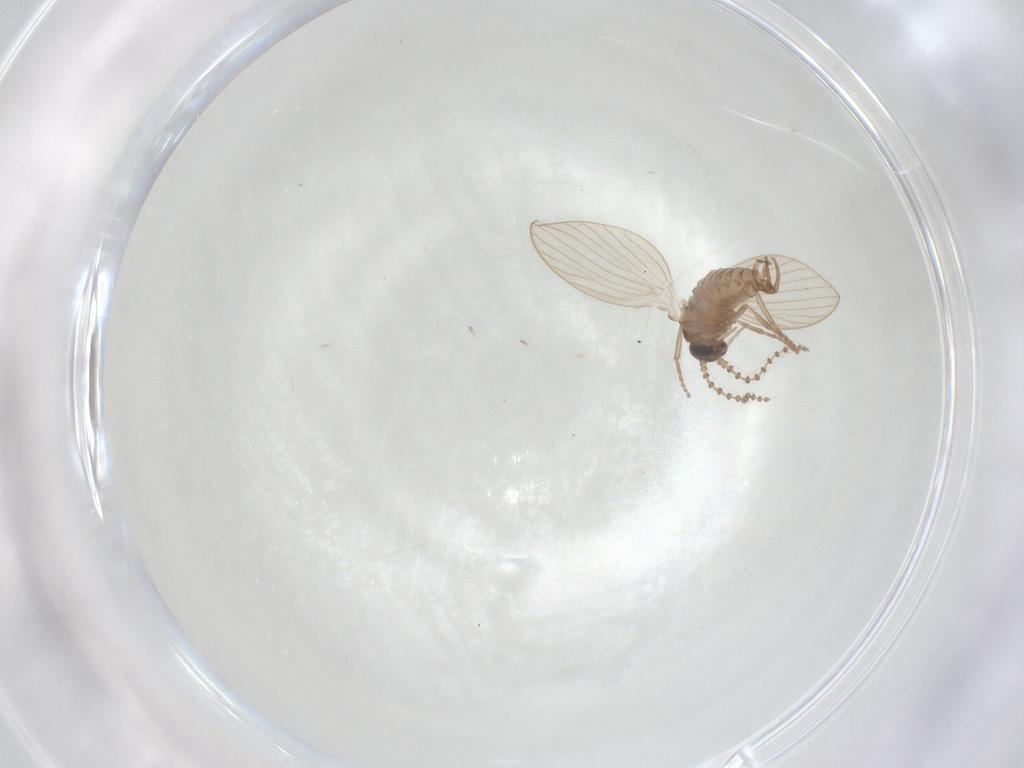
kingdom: Animalia
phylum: Arthropoda
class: Insecta
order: Diptera
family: Psychodidae
